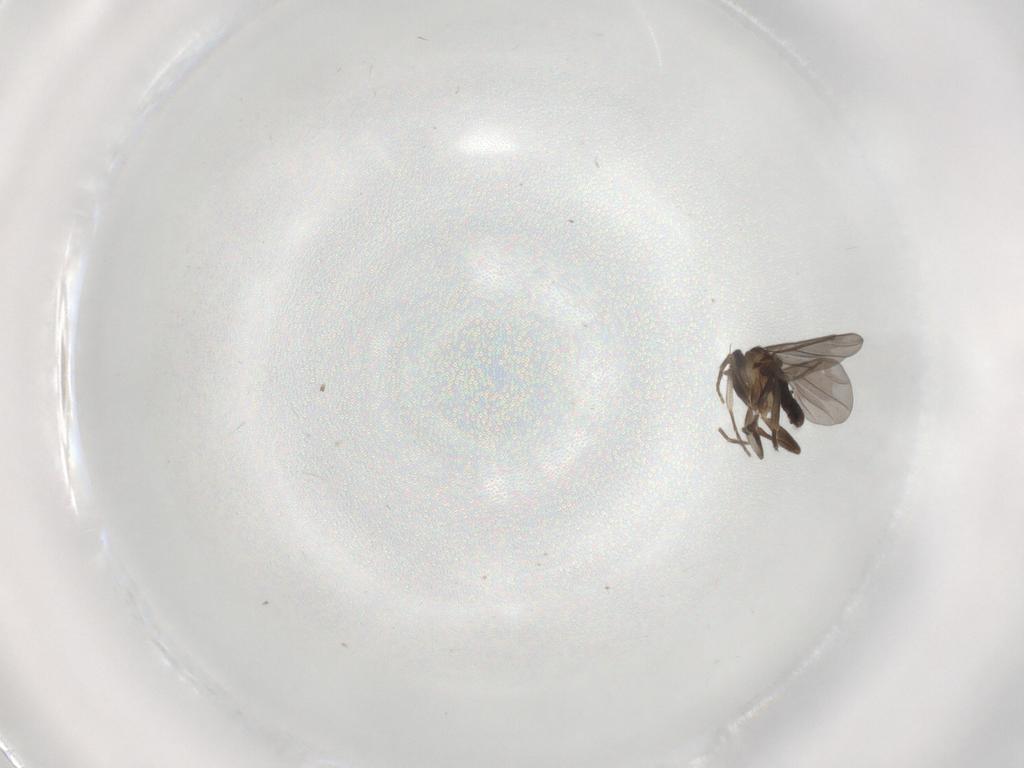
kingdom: Animalia
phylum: Arthropoda
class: Insecta
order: Diptera
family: Phoridae
